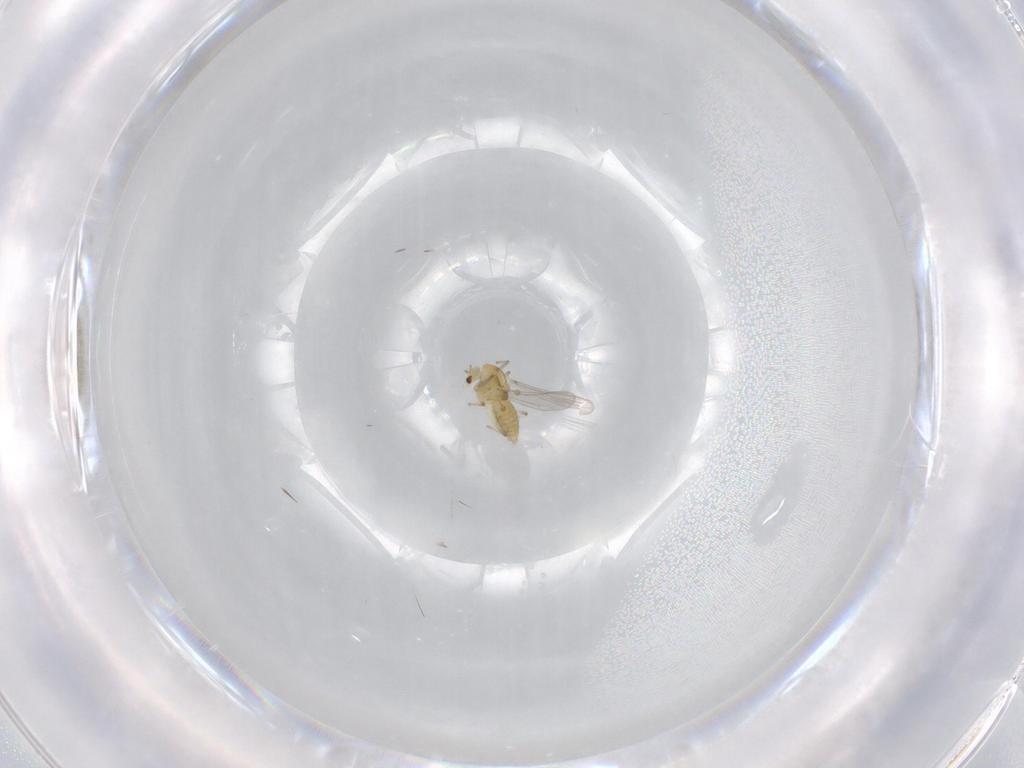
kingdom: Animalia
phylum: Arthropoda
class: Insecta
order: Diptera
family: Chironomidae
